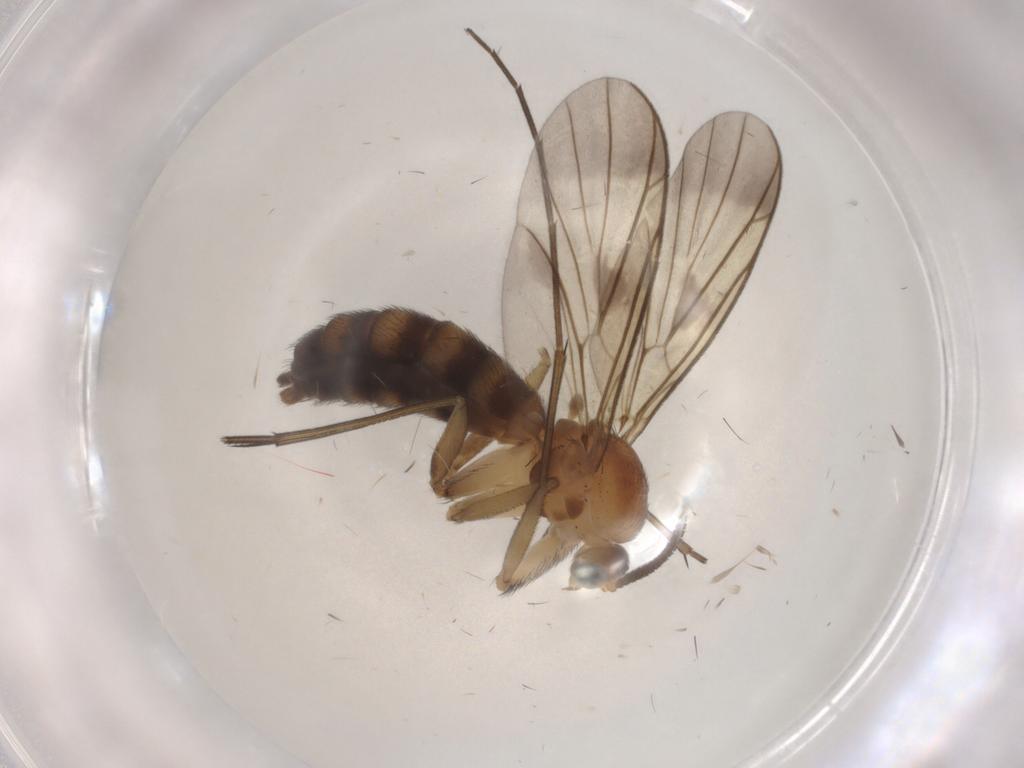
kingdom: Animalia
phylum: Arthropoda
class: Insecta
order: Diptera
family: Keroplatidae
